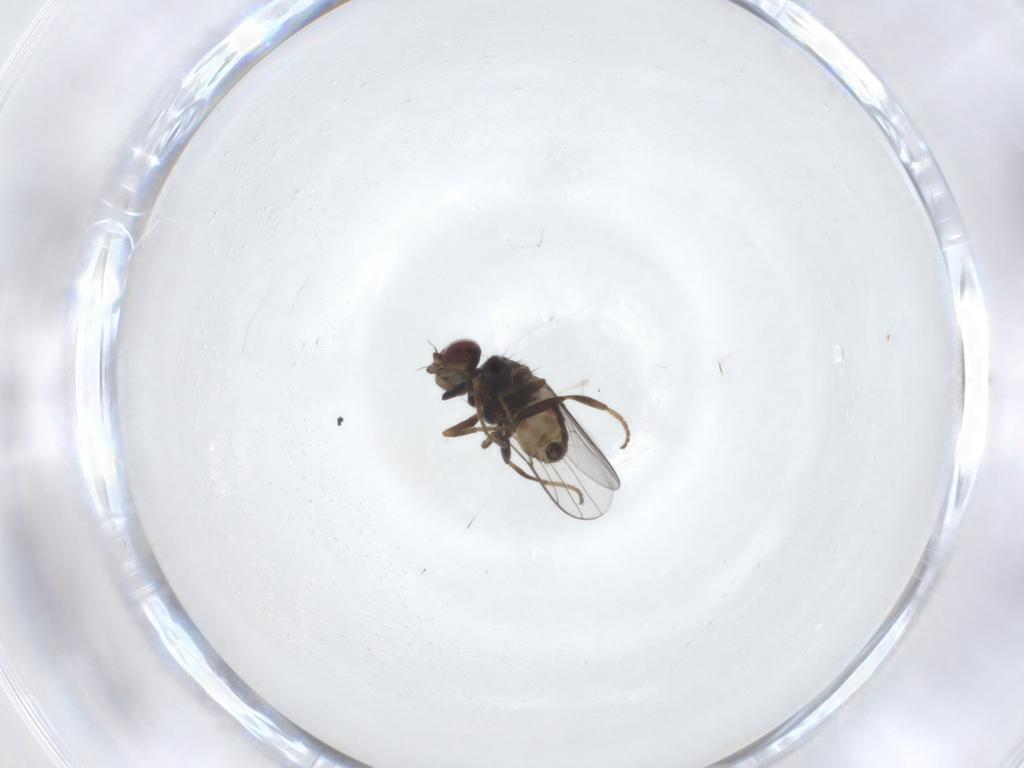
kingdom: Animalia
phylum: Arthropoda
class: Insecta
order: Diptera
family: Chloropidae
